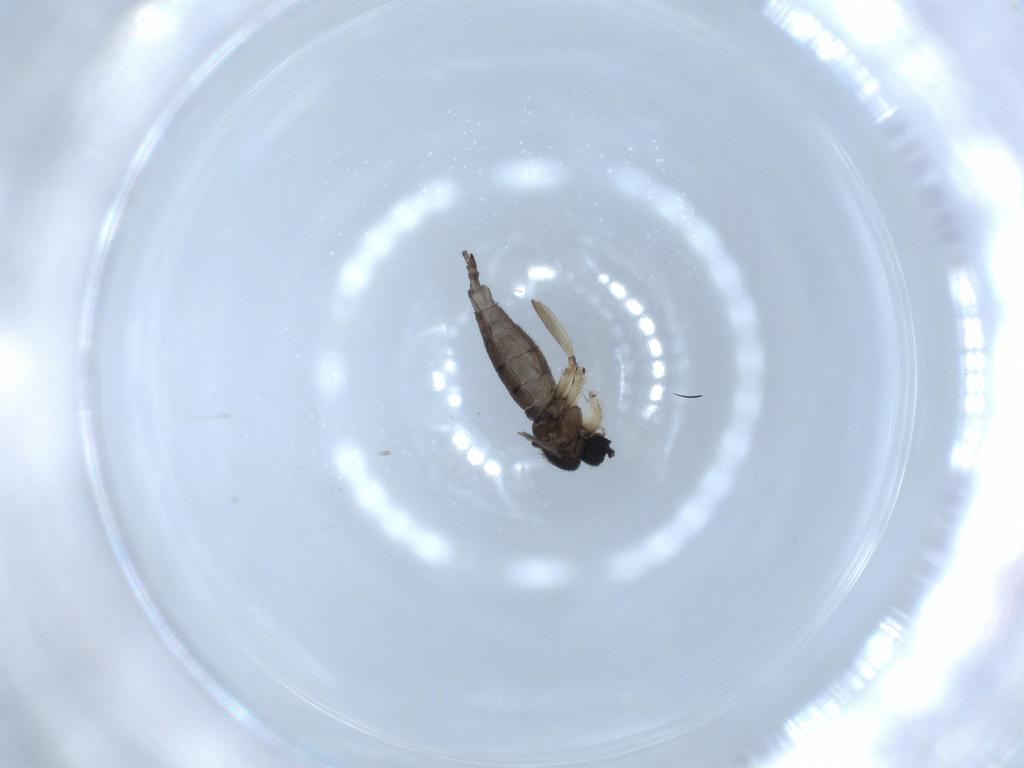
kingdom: Animalia
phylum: Arthropoda
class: Insecta
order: Diptera
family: Sciaridae
